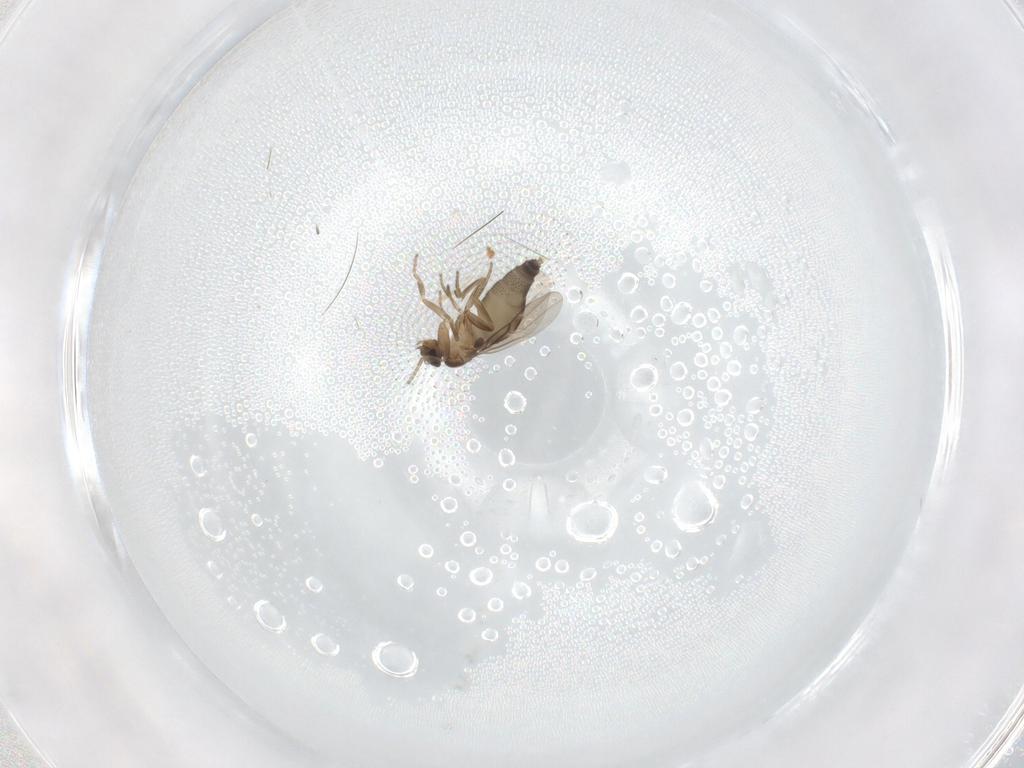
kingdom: Animalia
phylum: Arthropoda
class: Insecta
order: Diptera
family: Phoridae
